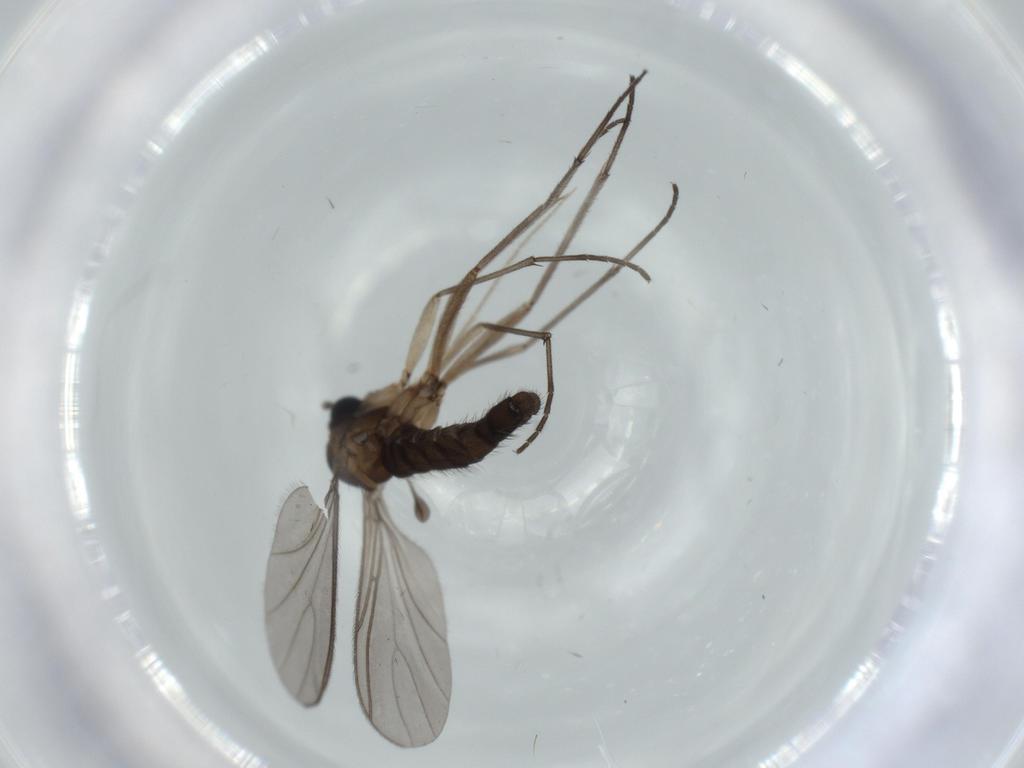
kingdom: Animalia
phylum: Arthropoda
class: Insecta
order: Diptera
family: Sciaridae
